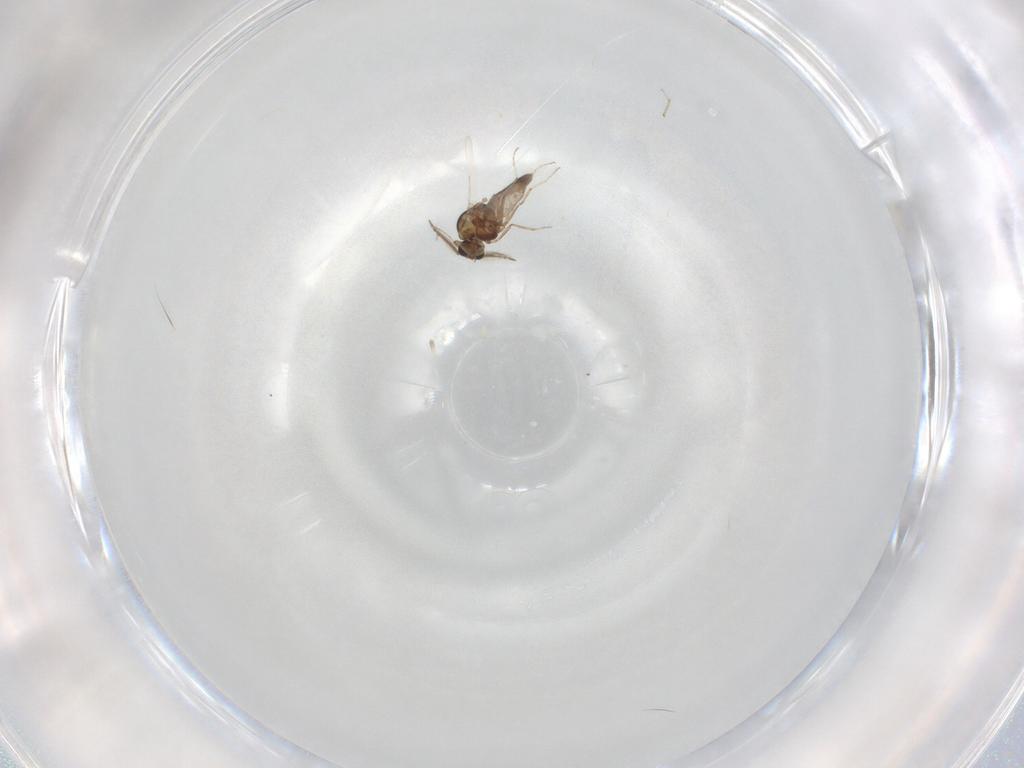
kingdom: Animalia
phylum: Arthropoda
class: Insecta
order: Diptera
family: Ceratopogonidae
